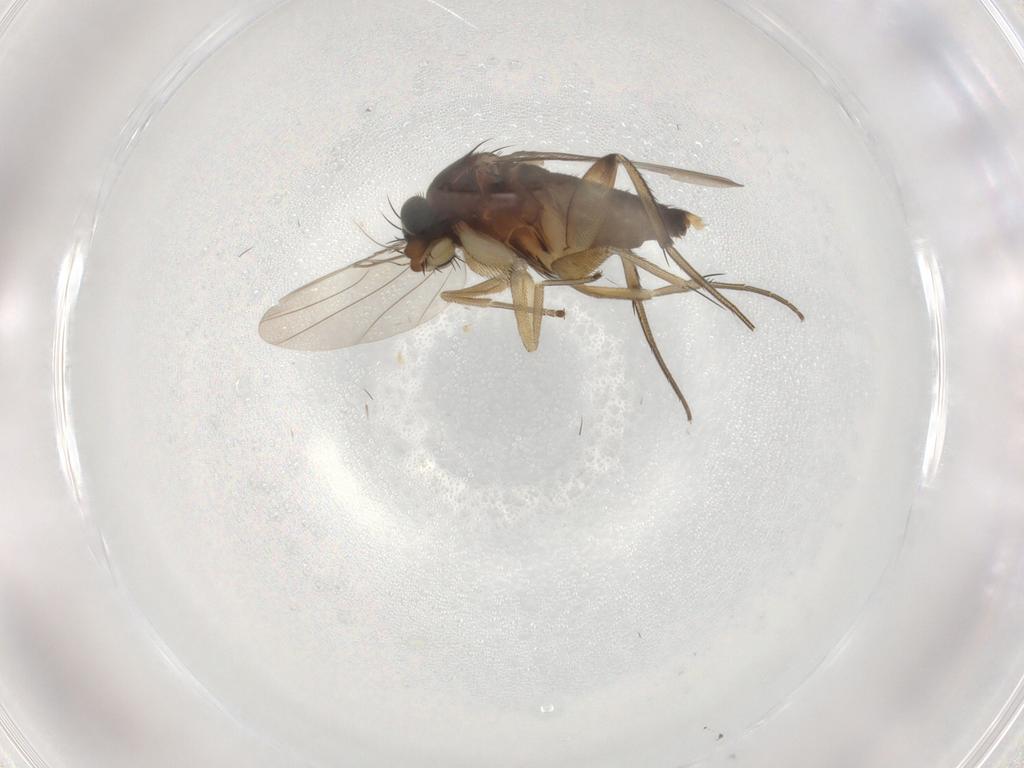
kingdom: Animalia
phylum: Arthropoda
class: Insecta
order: Diptera
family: Phoridae
